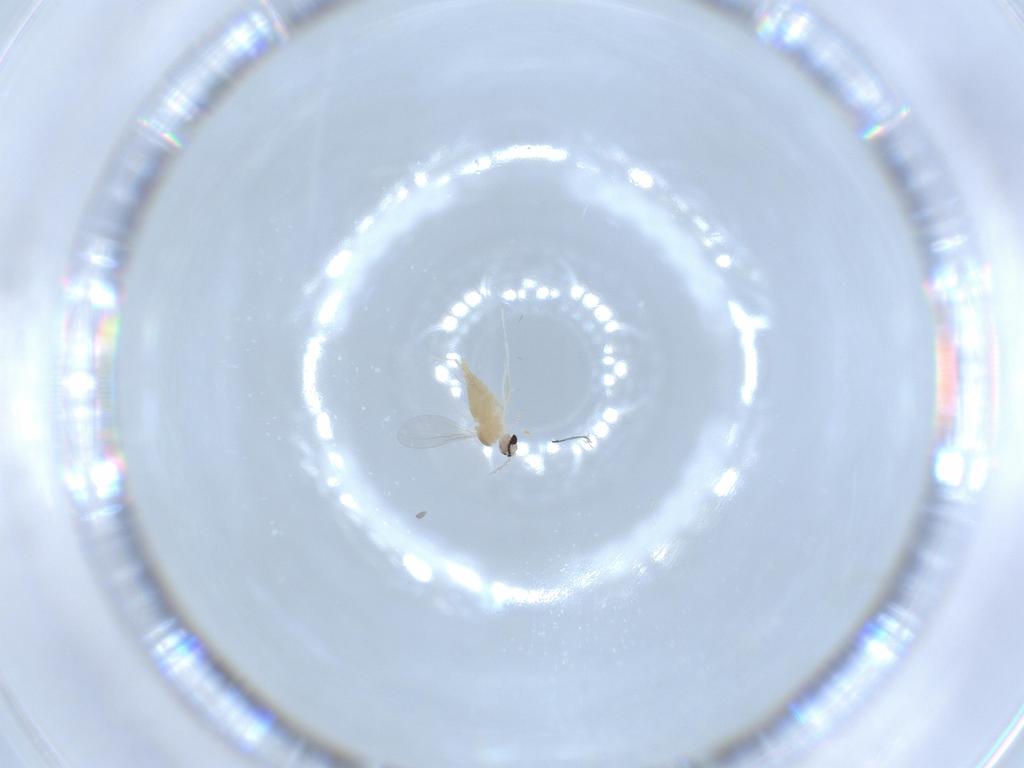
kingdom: Animalia
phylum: Arthropoda
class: Insecta
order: Diptera
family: Cecidomyiidae
